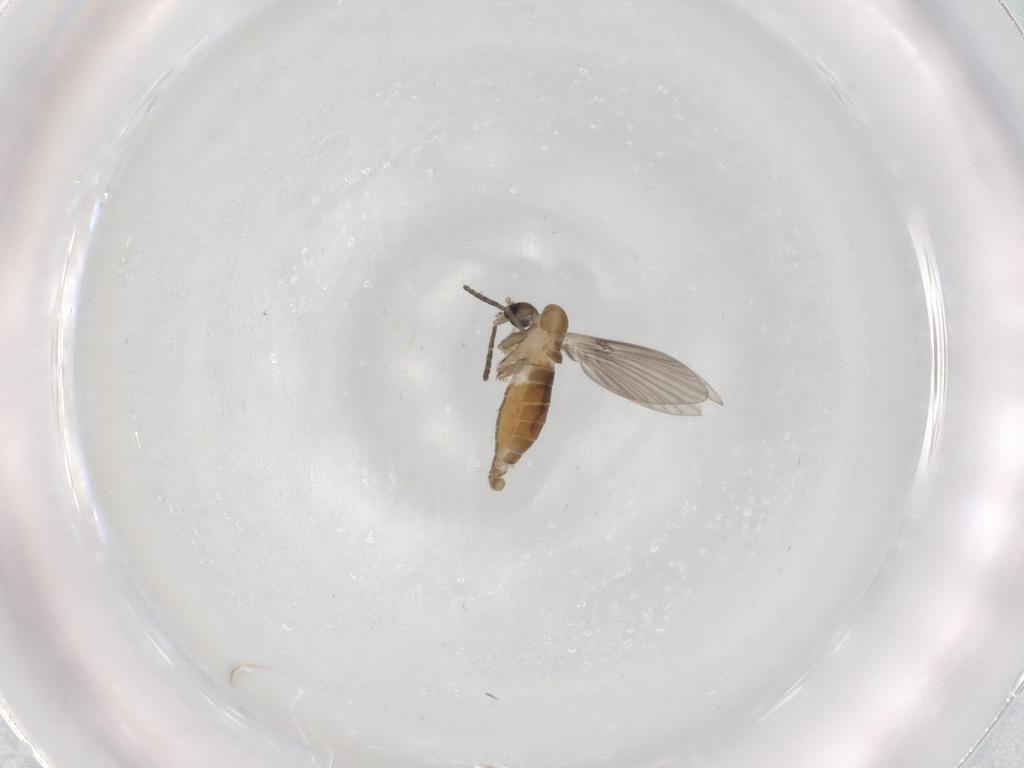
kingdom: Animalia
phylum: Arthropoda
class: Insecta
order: Diptera
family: Psychodidae
